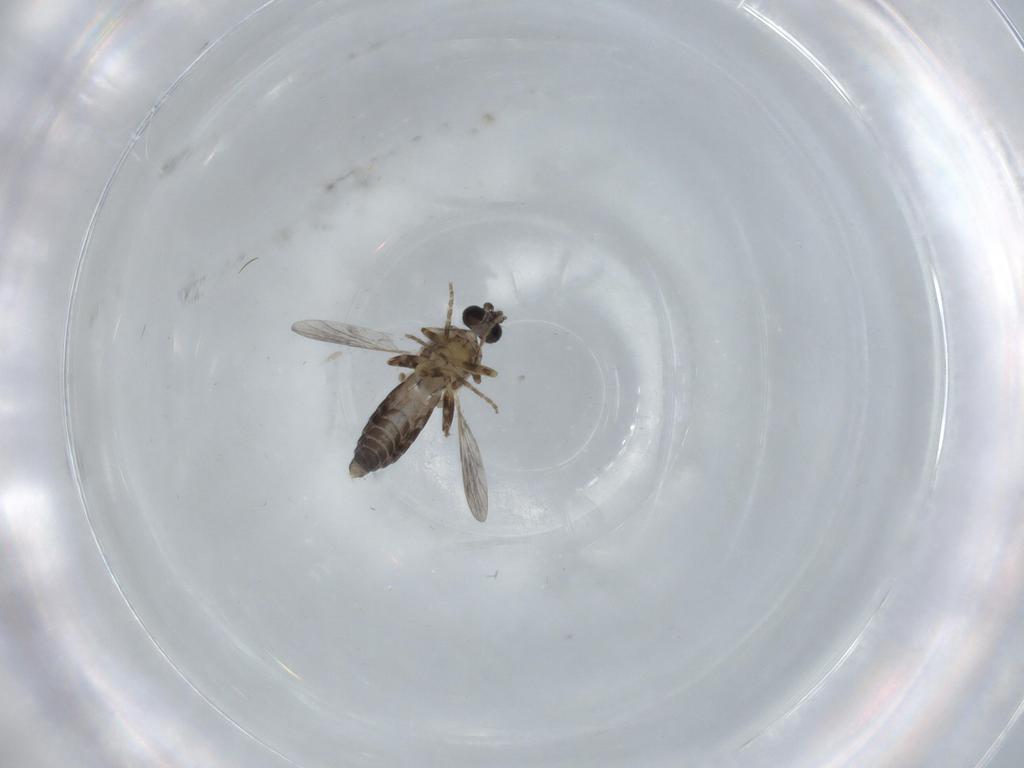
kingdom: Animalia
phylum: Arthropoda
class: Insecta
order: Diptera
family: Ceratopogonidae
